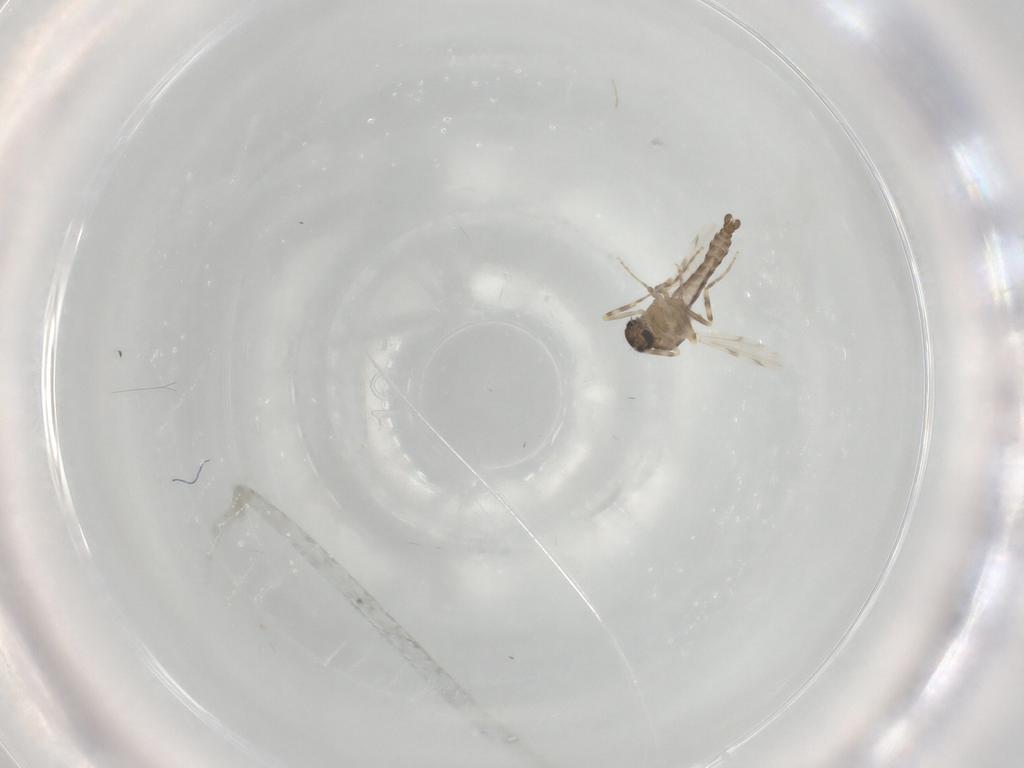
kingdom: Animalia
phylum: Arthropoda
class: Insecta
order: Diptera
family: Ceratopogonidae
